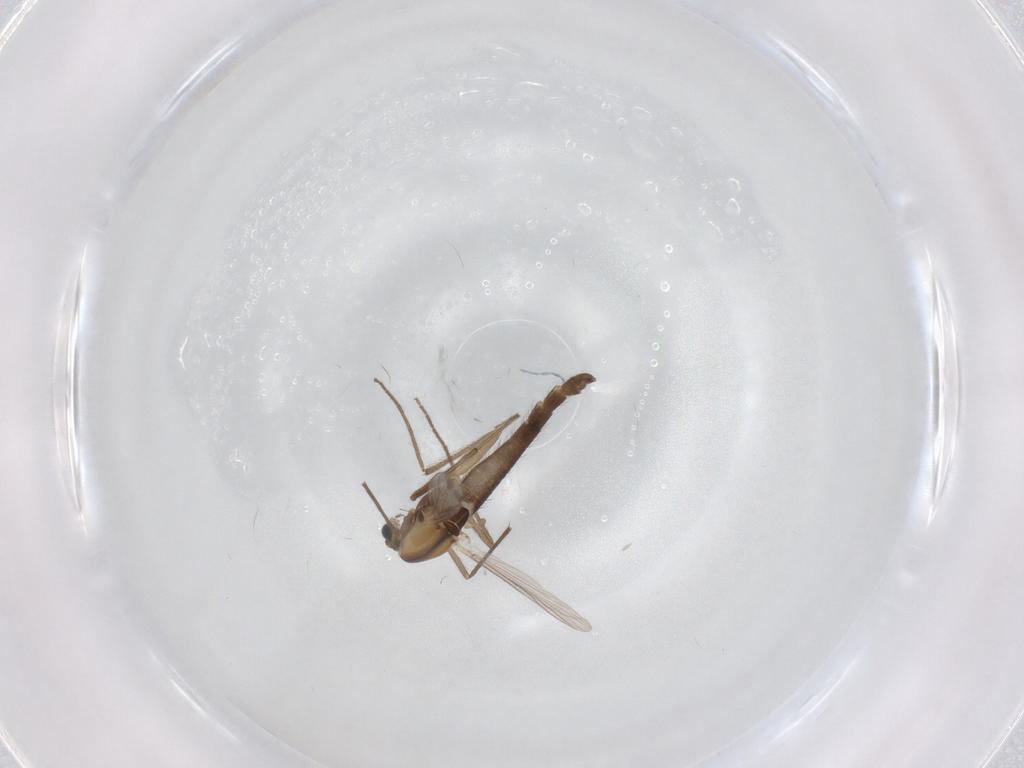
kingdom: Animalia
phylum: Arthropoda
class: Insecta
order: Diptera
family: Chironomidae
